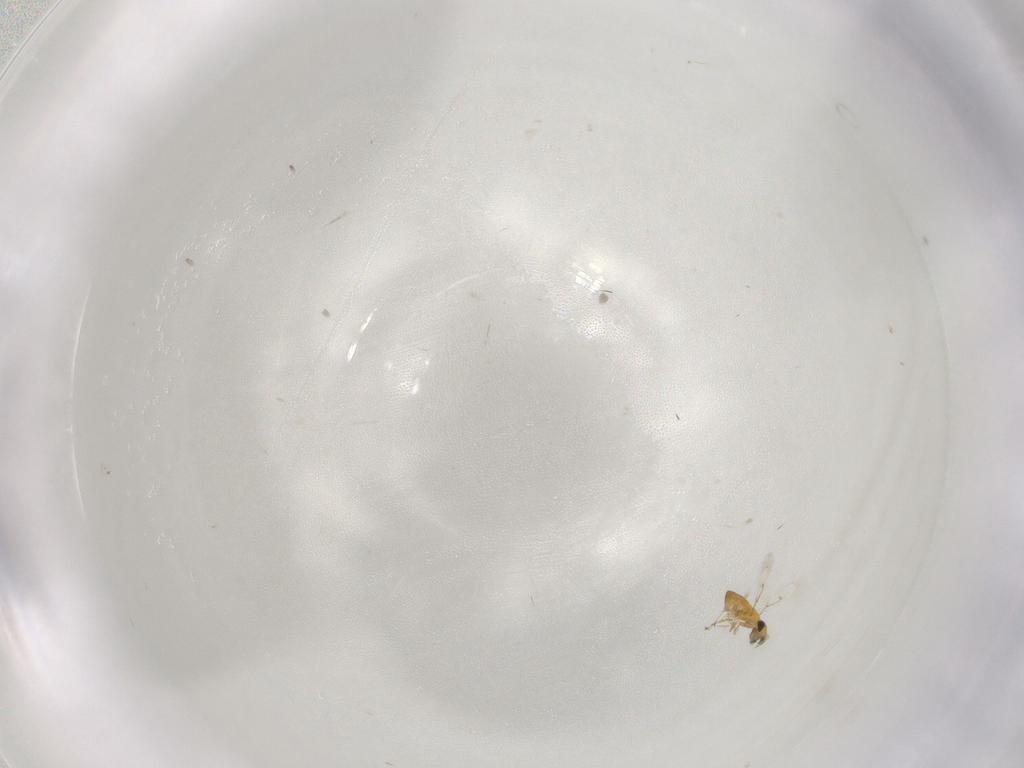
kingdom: Animalia
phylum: Arthropoda
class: Insecta
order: Hymenoptera
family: Trichogrammatidae
